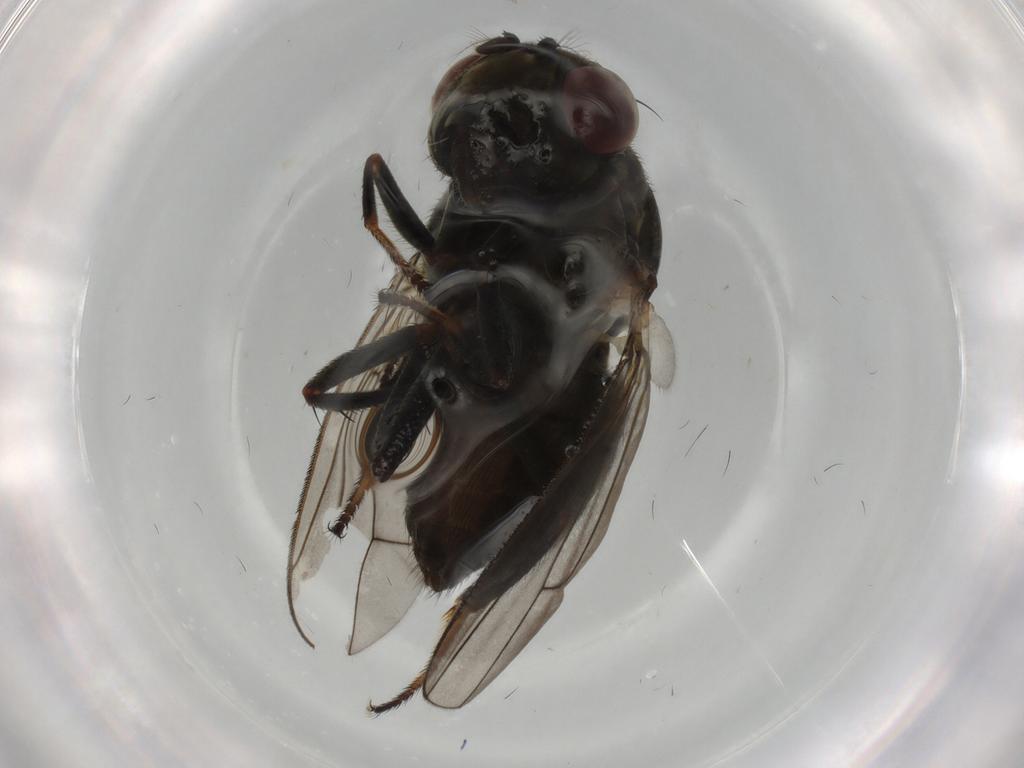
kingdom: Animalia
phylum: Arthropoda
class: Insecta
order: Diptera
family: Ephydridae
